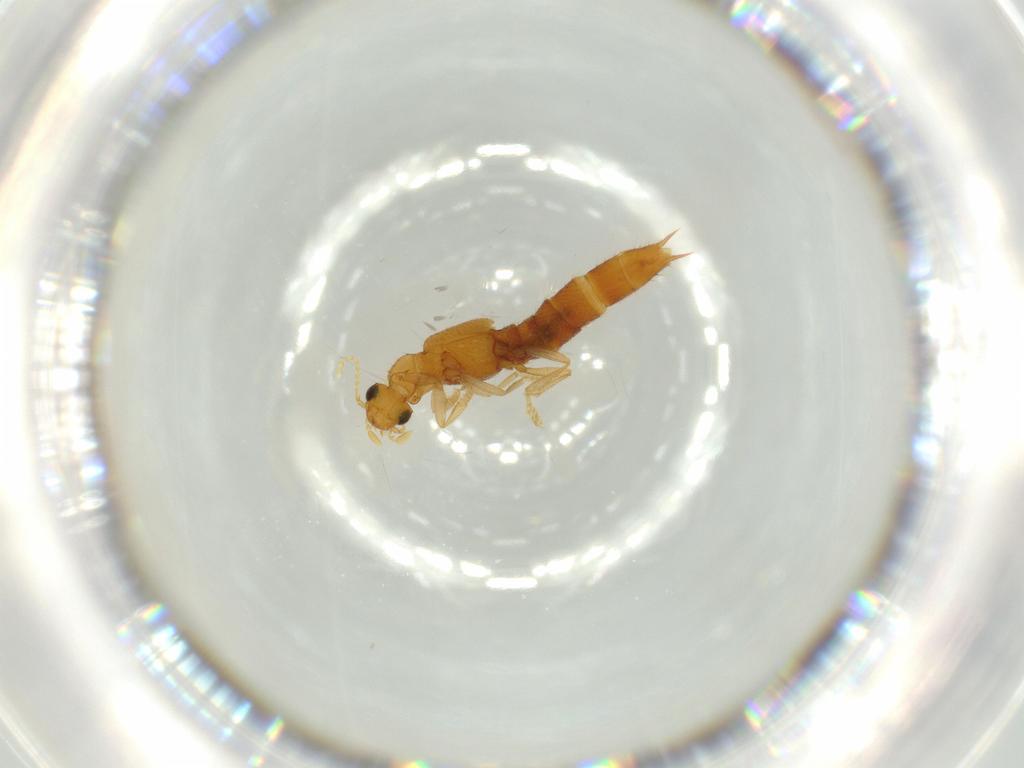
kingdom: Animalia
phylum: Arthropoda
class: Insecta
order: Coleoptera
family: Staphylinidae
